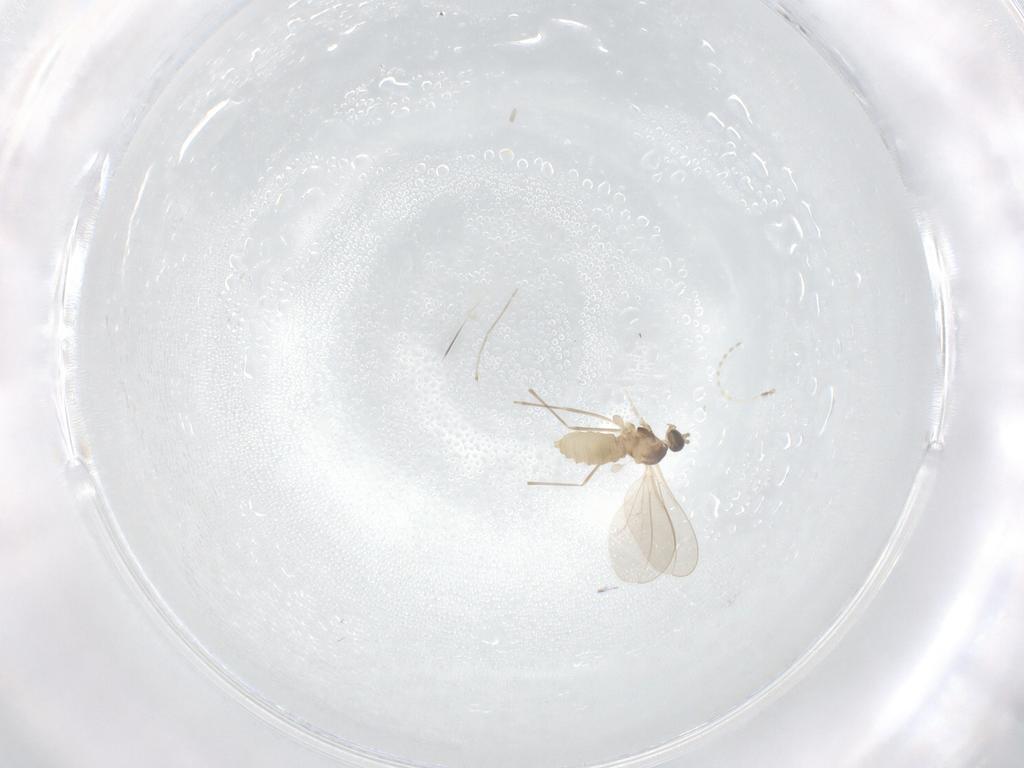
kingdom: Animalia
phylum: Arthropoda
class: Insecta
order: Diptera
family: Cecidomyiidae
